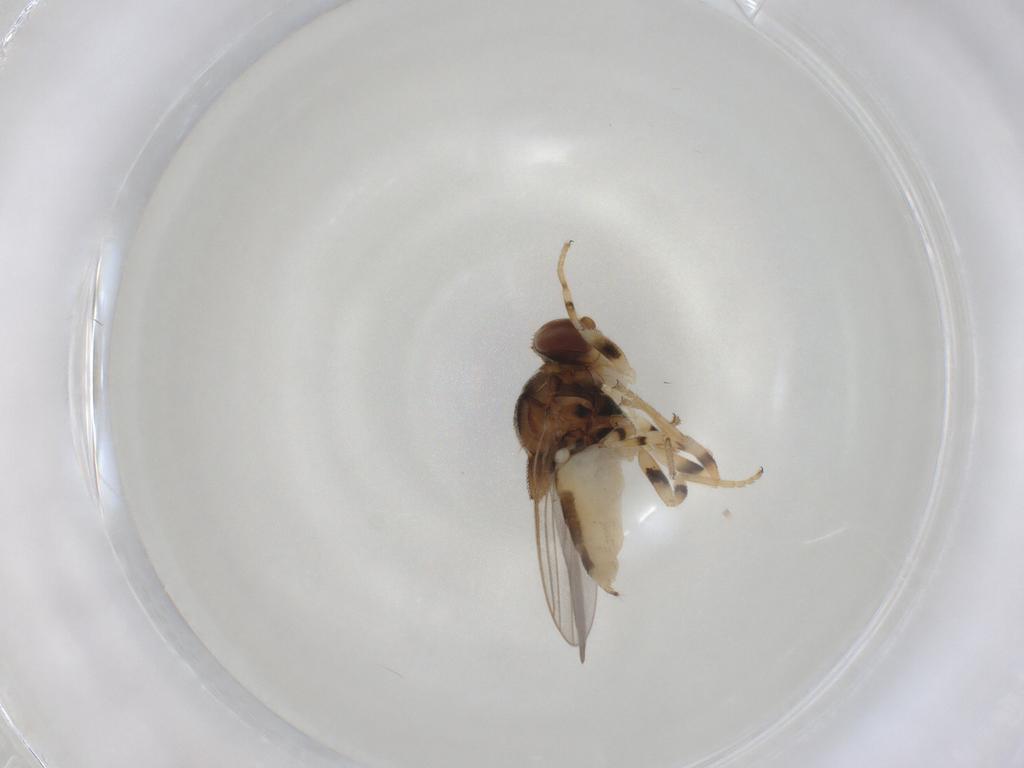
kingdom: Animalia
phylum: Arthropoda
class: Insecta
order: Diptera
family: Chloropidae
